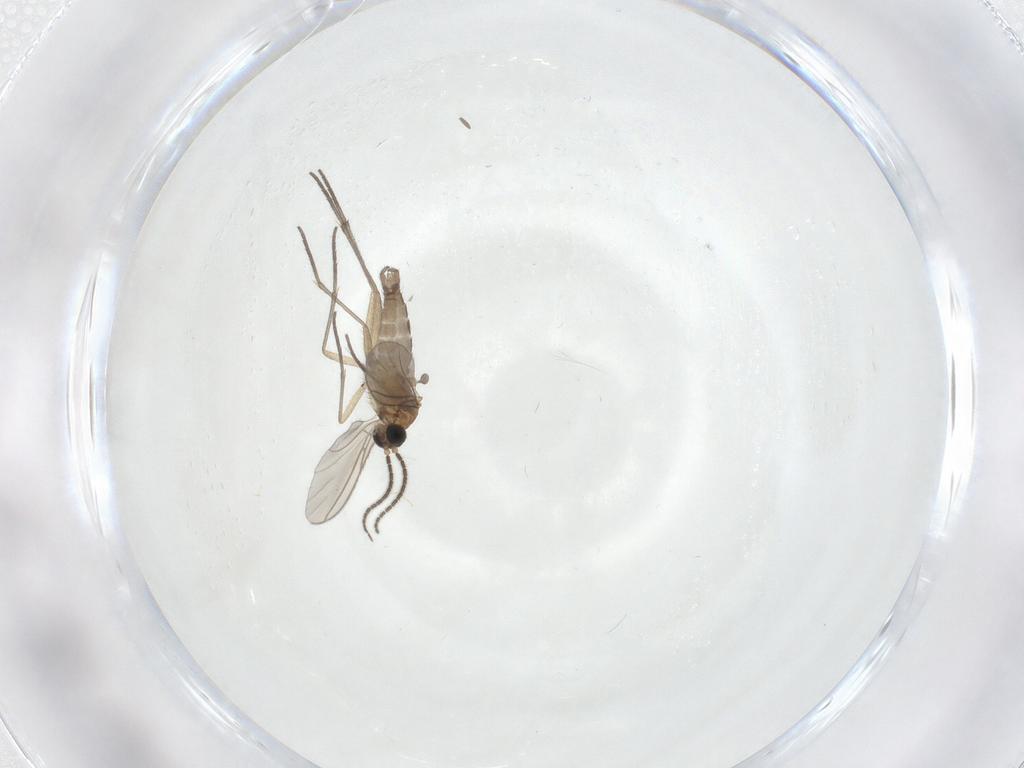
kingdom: Animalia
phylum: Arthropoda
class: Insecta
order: Diptera
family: Sciaridae
